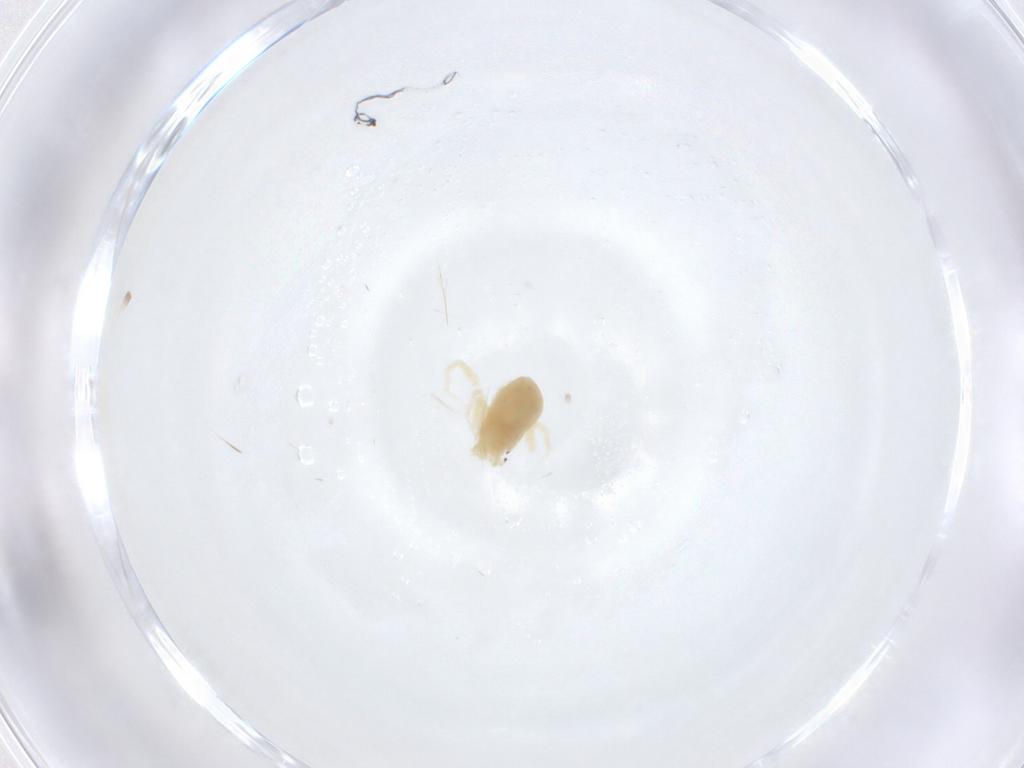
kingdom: Animalia
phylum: Arthropoda
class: Arachnida
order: Trombidiformes
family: Anystidae
